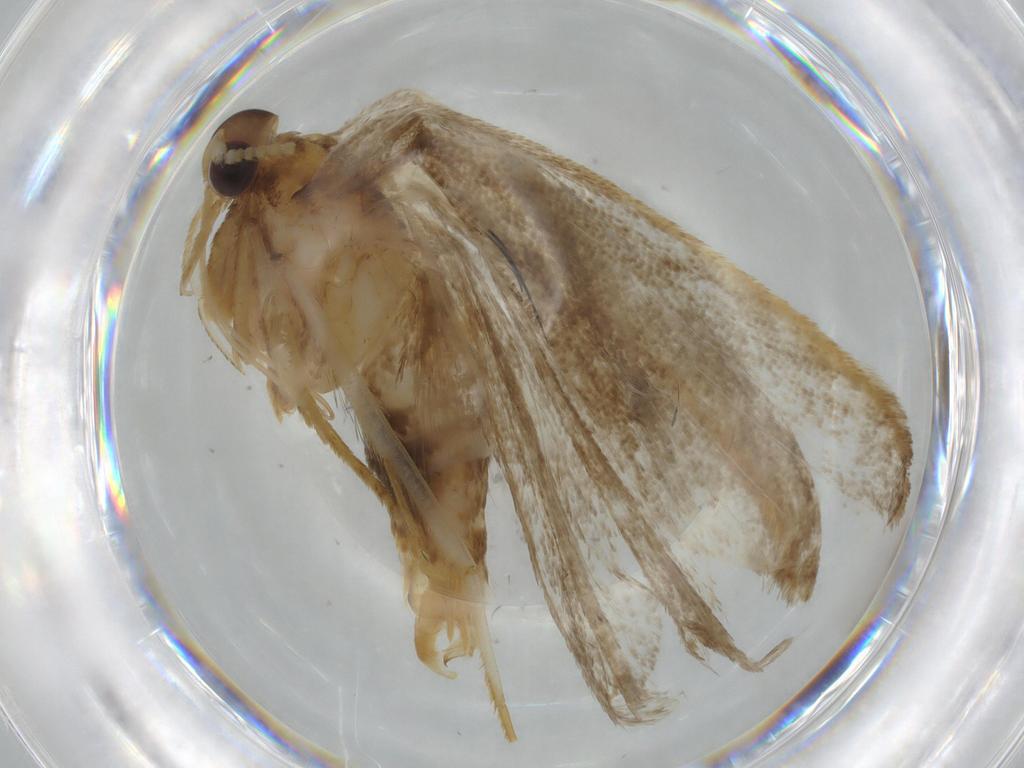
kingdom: Animalia
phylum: Arthropoda
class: Insecta
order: Lepidoptera
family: Lecithoceridae
